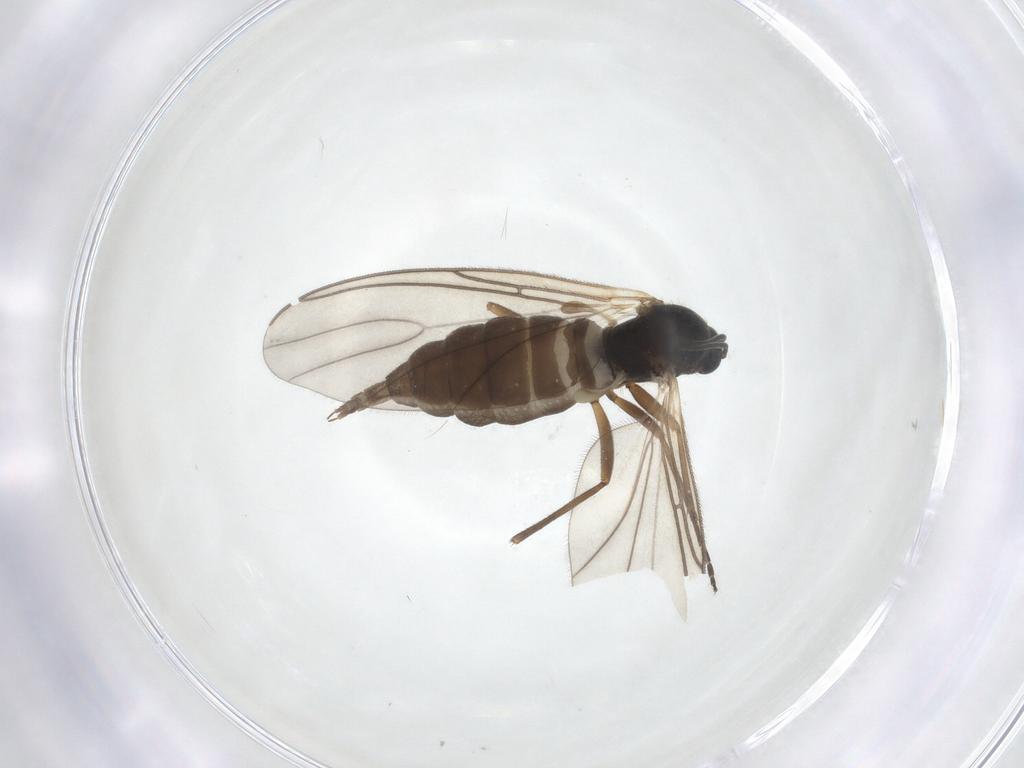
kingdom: Animalia
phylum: Arthropoda
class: Insecta
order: Diptera
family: Sciaridae
